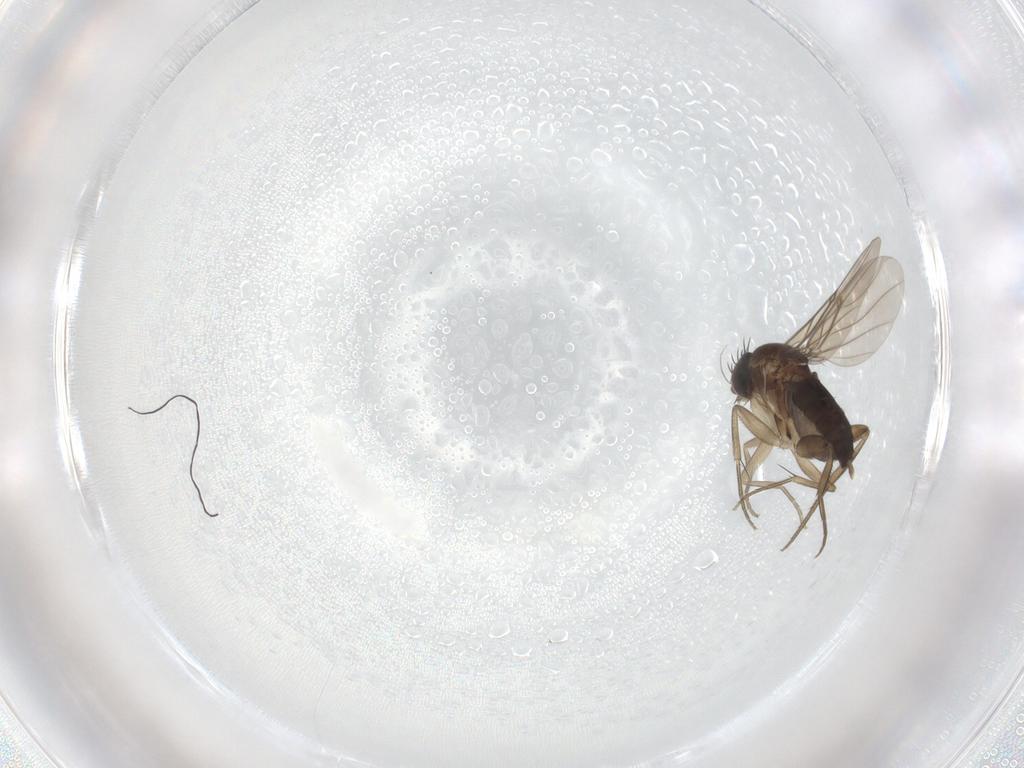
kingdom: Animalia
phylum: Arthropoda
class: Insecta
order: Diptera
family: Phoridae
